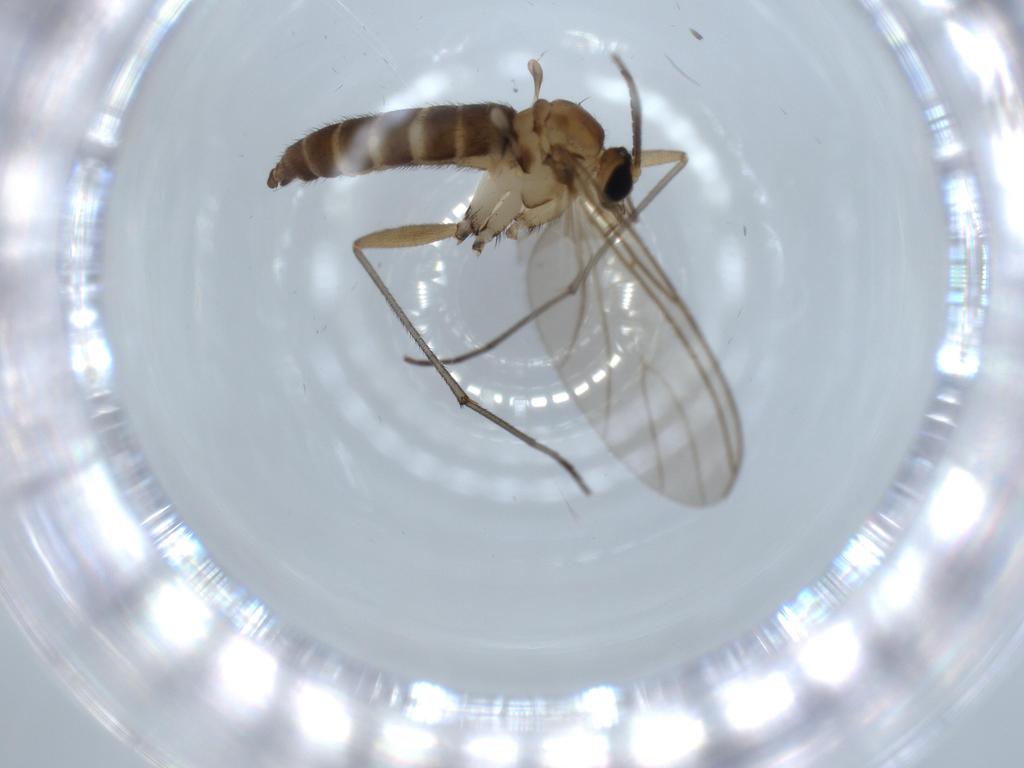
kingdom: Animalia
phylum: Arthropoda
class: Insecta
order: Diptera
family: Sciaridae
